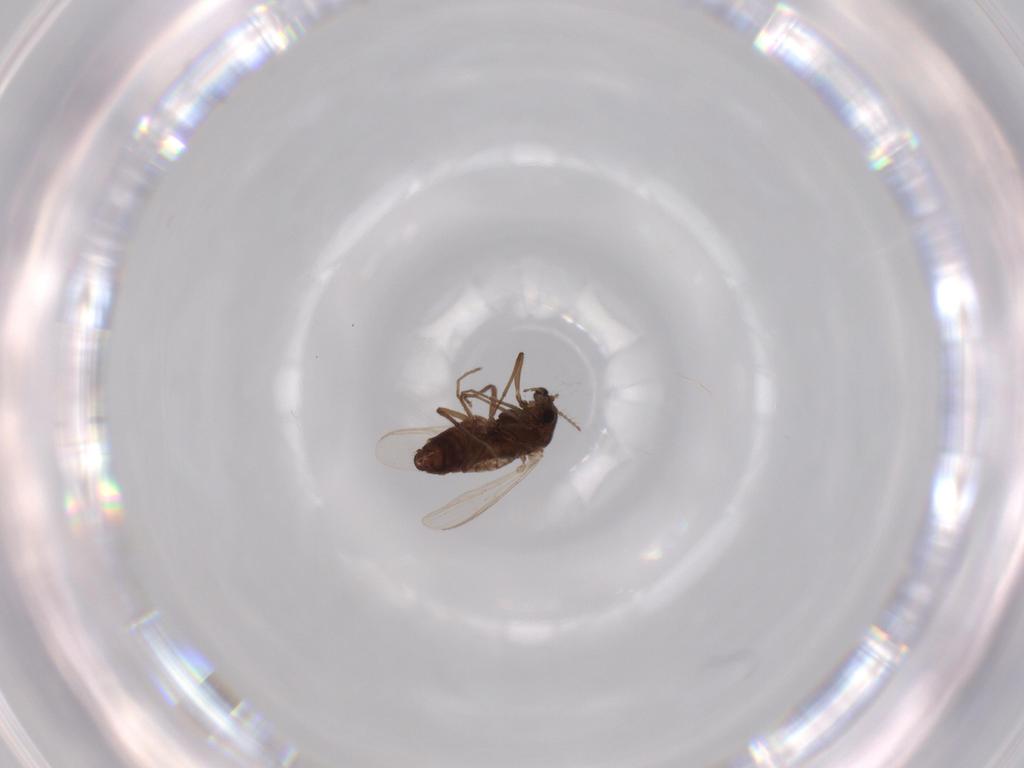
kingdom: Animalia
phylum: Arthropoda
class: Insecta
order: Diptera
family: Chironomidae
